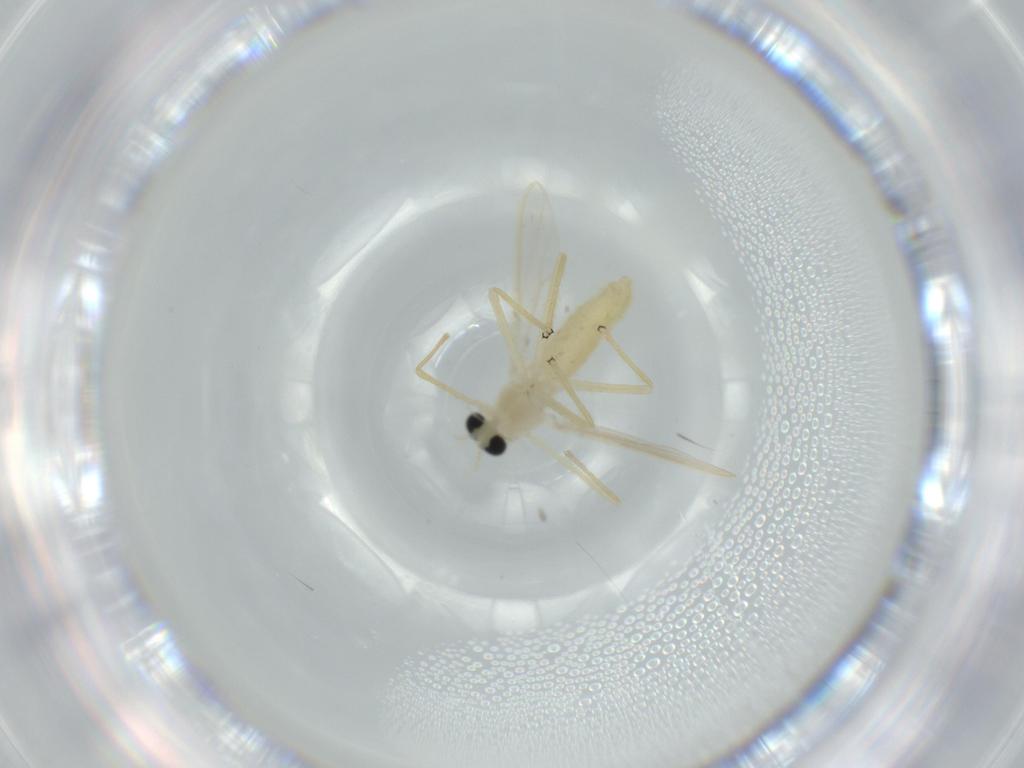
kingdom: Animalia
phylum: Arthropoda
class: Insecta
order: Diptera
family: Chironomidae
